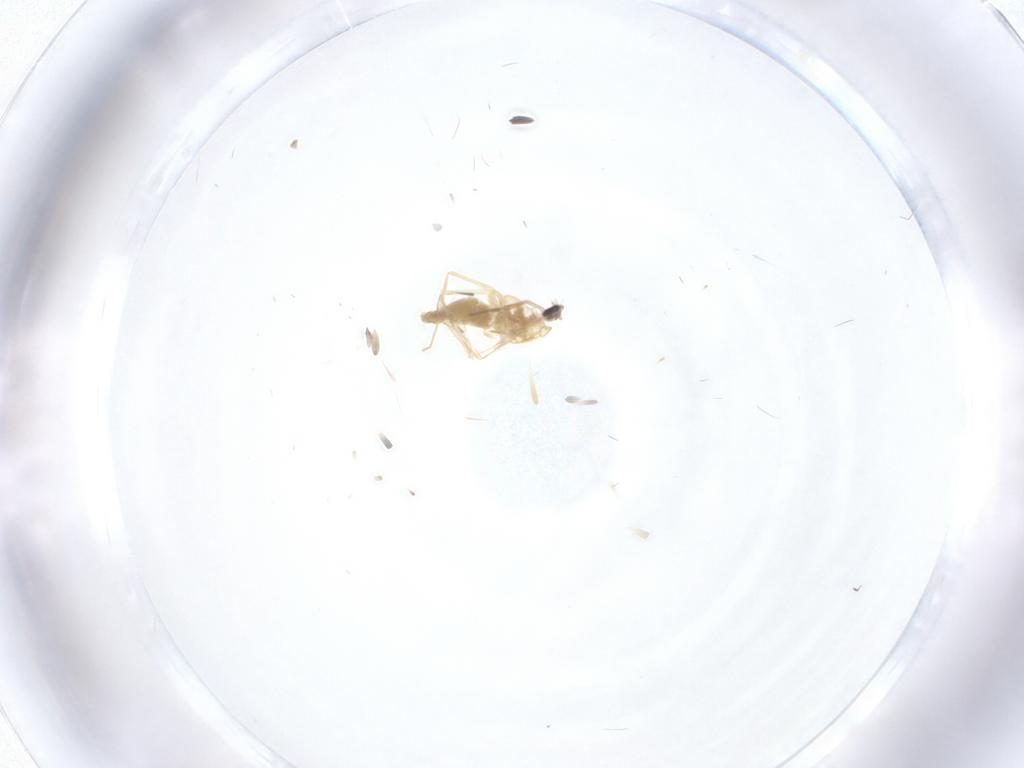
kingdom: Animalia
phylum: Arthropoda
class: Insecta
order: Diptera
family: Chironomidae
